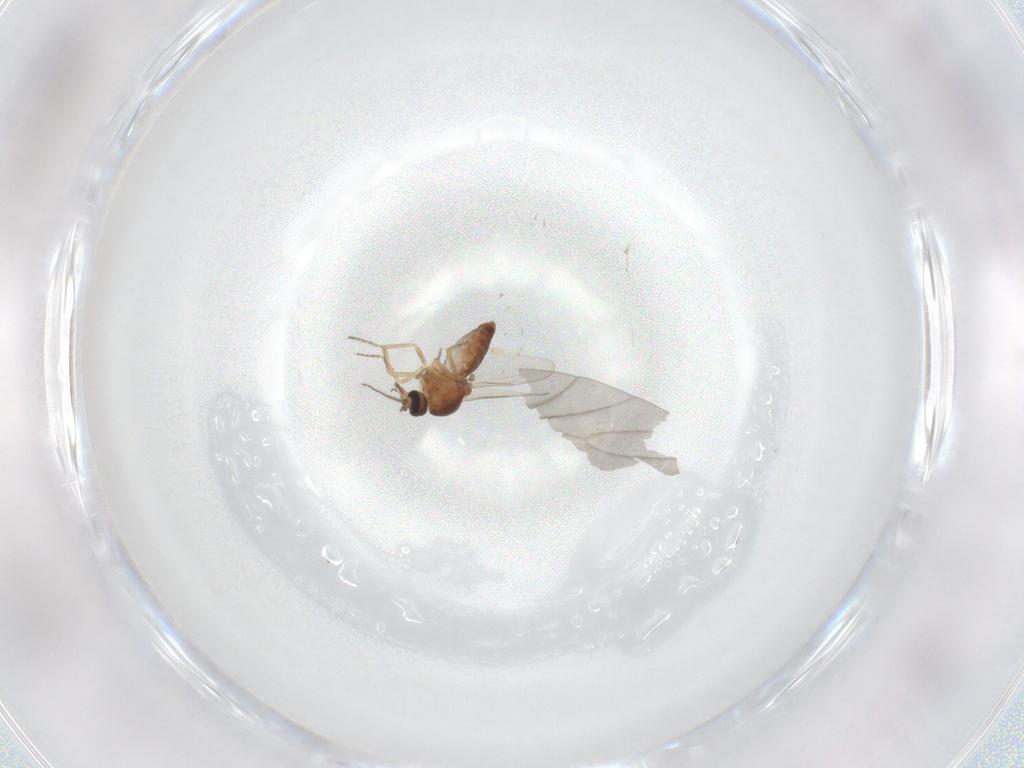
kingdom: Animalia
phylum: Arthropoda
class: Insecta
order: Diptera
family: Ceratopogonidae
